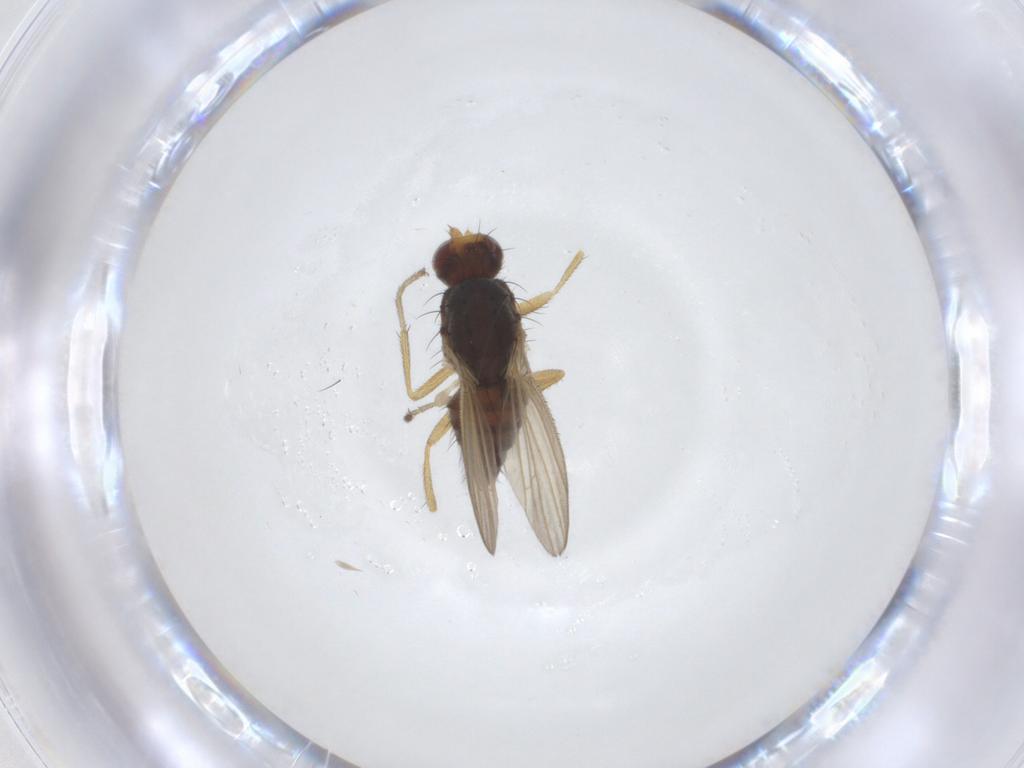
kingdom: Animalia
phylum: Arthropoda
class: Insecta
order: Diptera
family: Heleomyzidae
